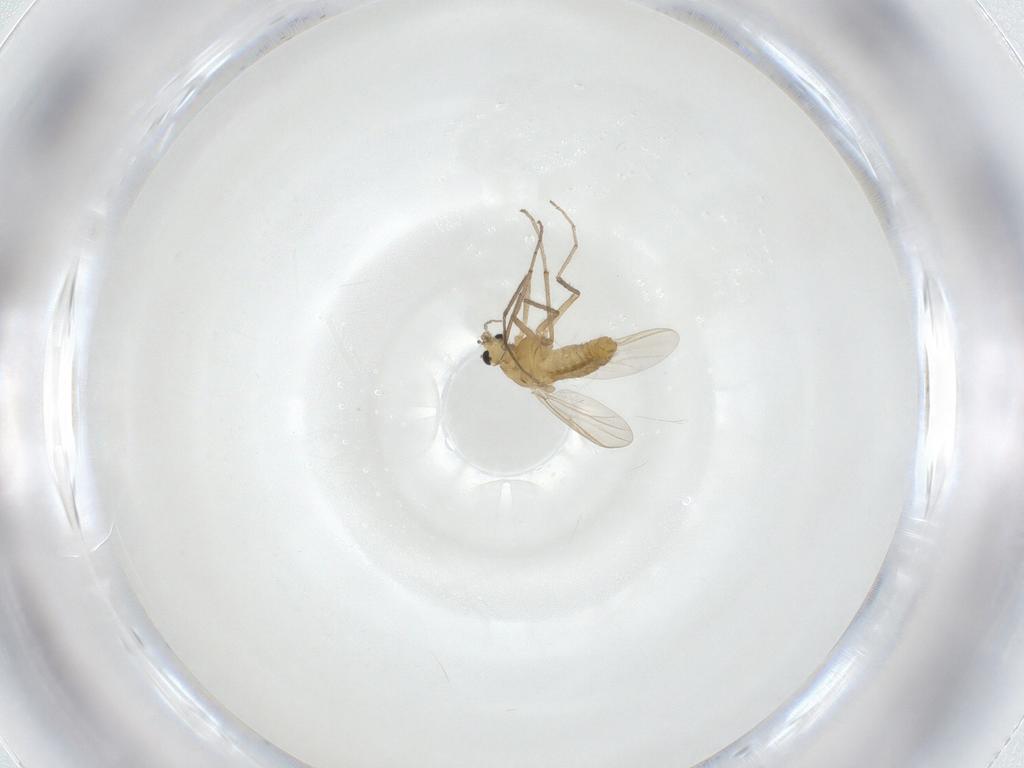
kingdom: Animalia
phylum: Arthropoda
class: Insecta
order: Diptera
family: Chironomidae
